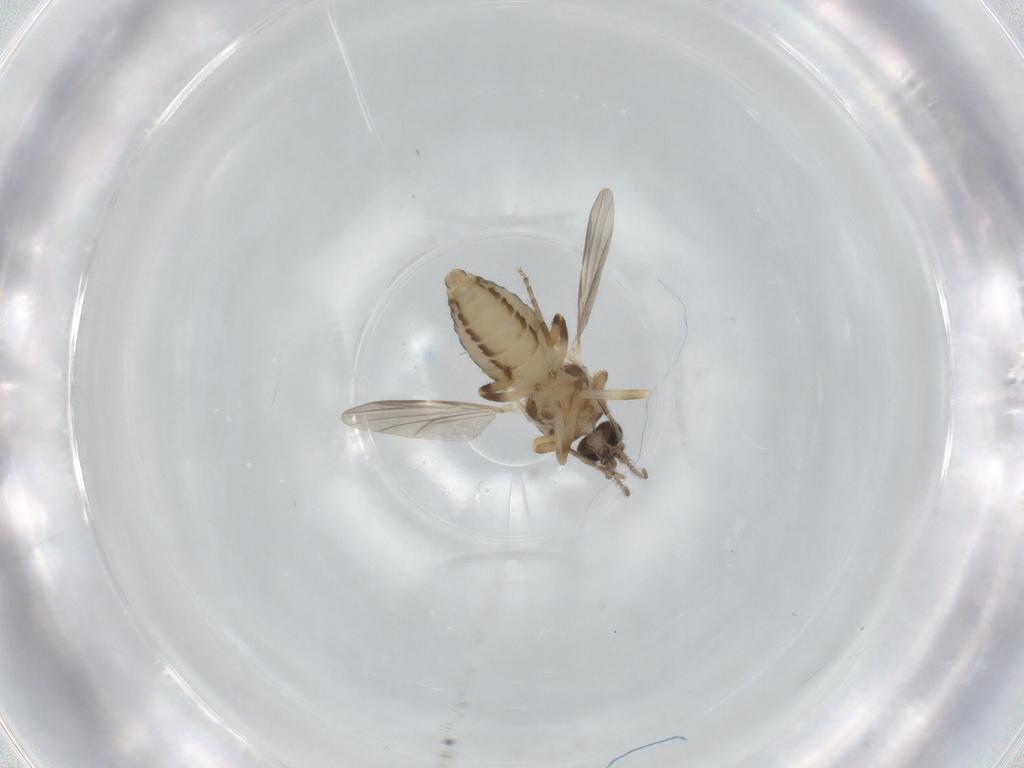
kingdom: Animalia
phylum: Arthropoda
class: Insecta
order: Diptera
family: Ceratopogonidae
